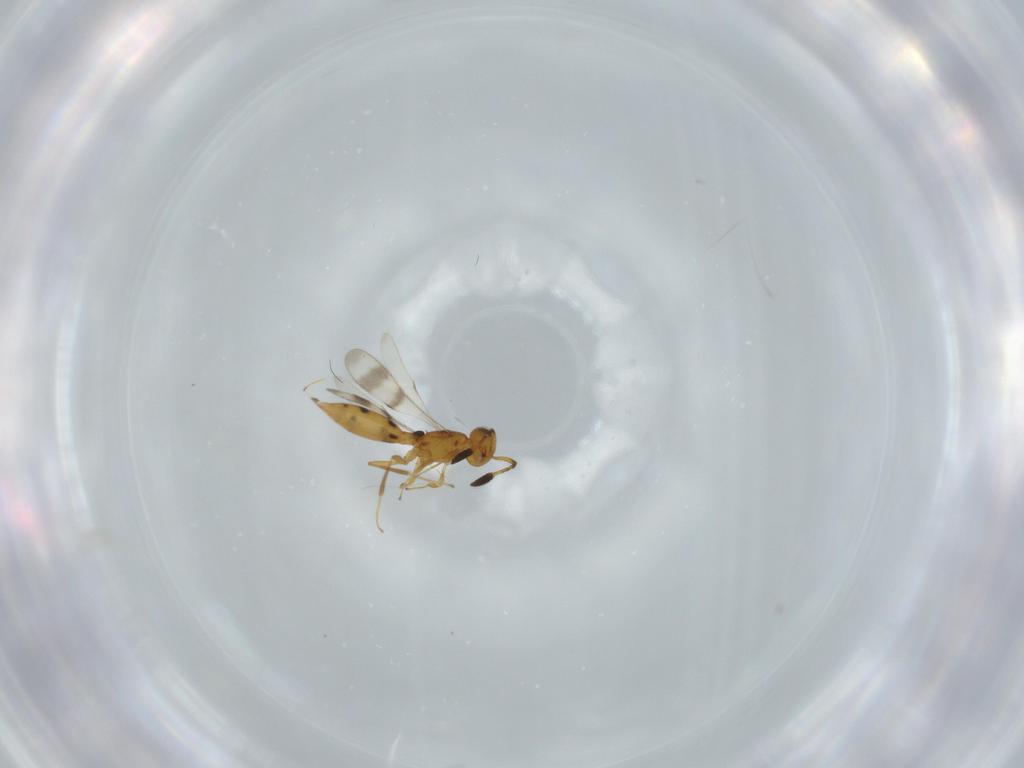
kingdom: Animalia
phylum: Arthropoda
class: Insecta
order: Hymenoptera
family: Scelionidae
